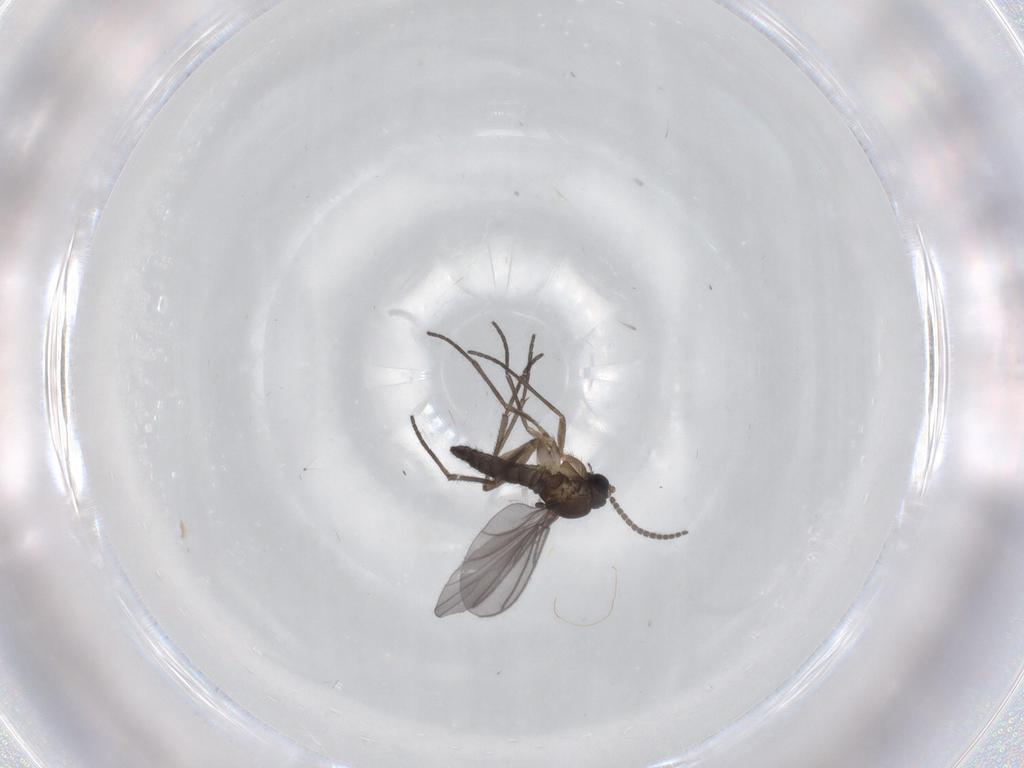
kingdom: Animalia
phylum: Arthropoda
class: Insecta
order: Diptera
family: Sciaridae
